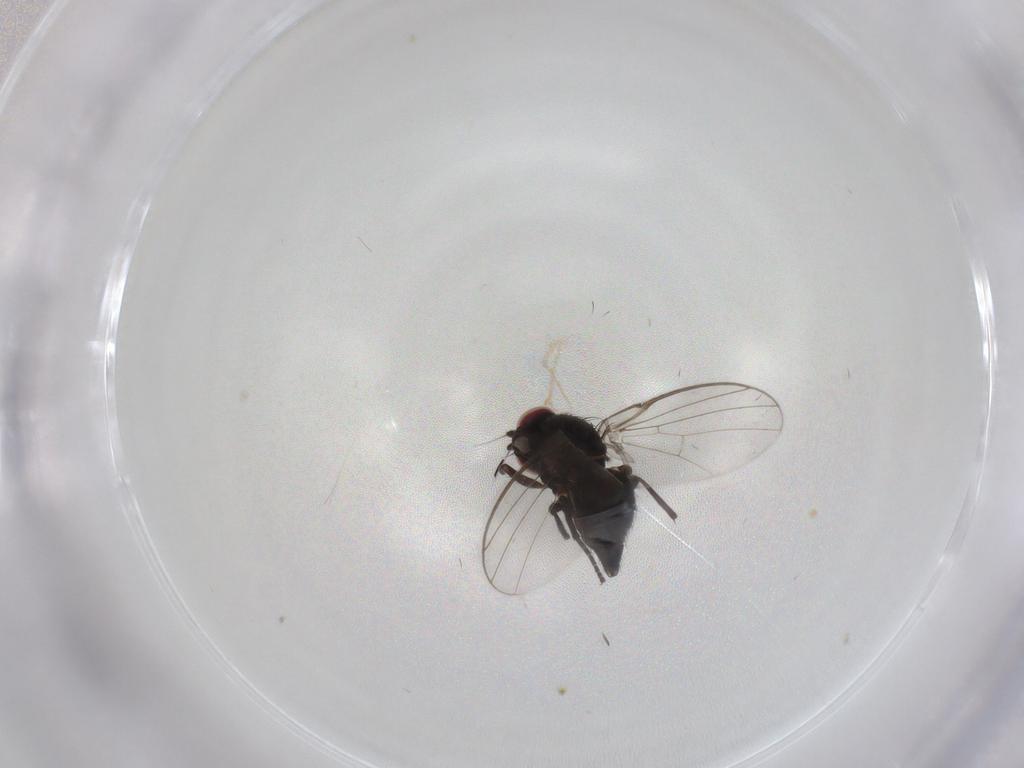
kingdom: Animalia
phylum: Arthropoda
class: Insecta
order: Diptera
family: Agromyzidae
